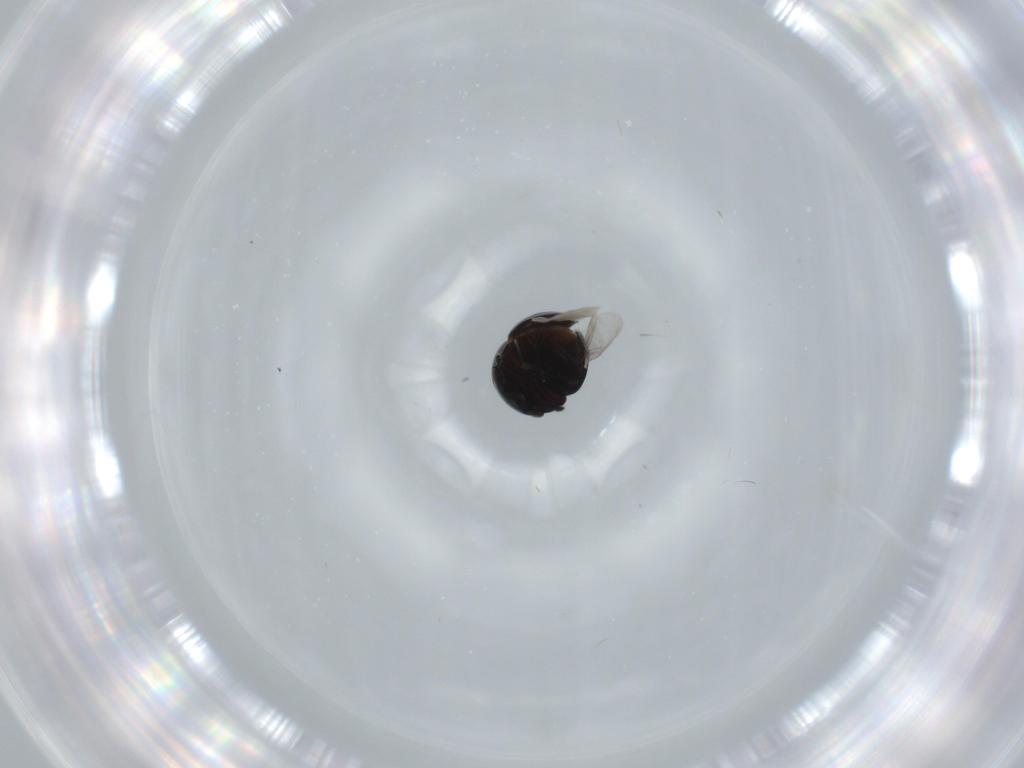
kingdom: Animalia
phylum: Arthropoda
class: Insecta
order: Coleoptera
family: Cybocephalidae
